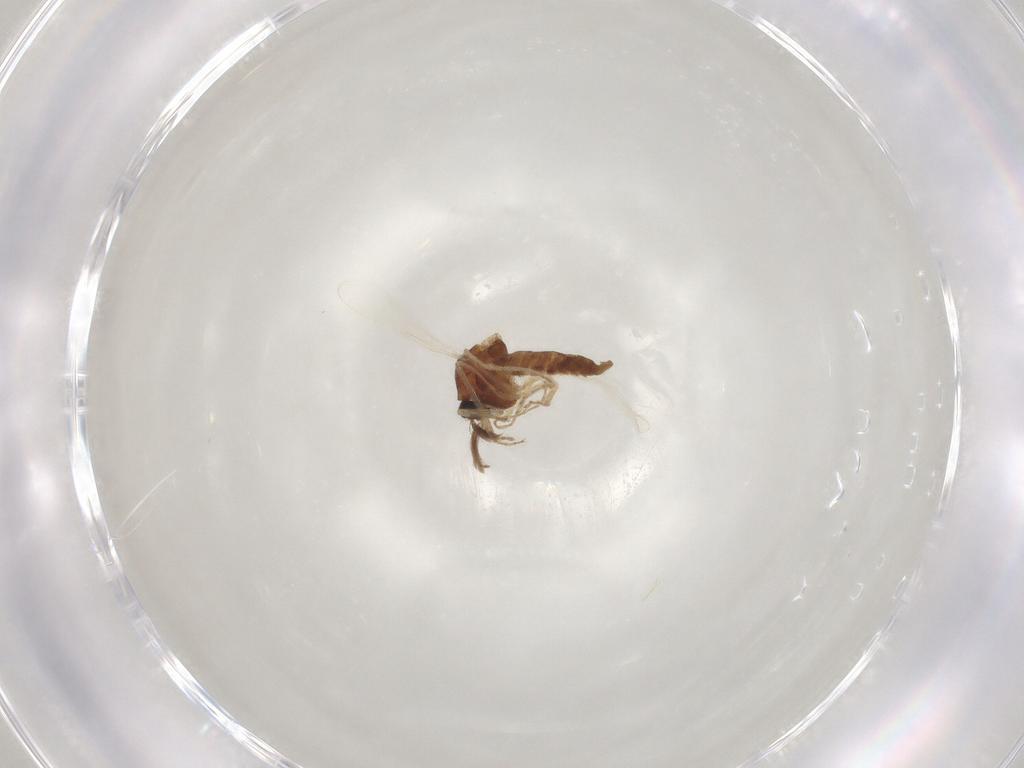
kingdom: Animalia
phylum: Arthropoda
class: Insecta
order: Diptera
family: Ceratopogonidae
